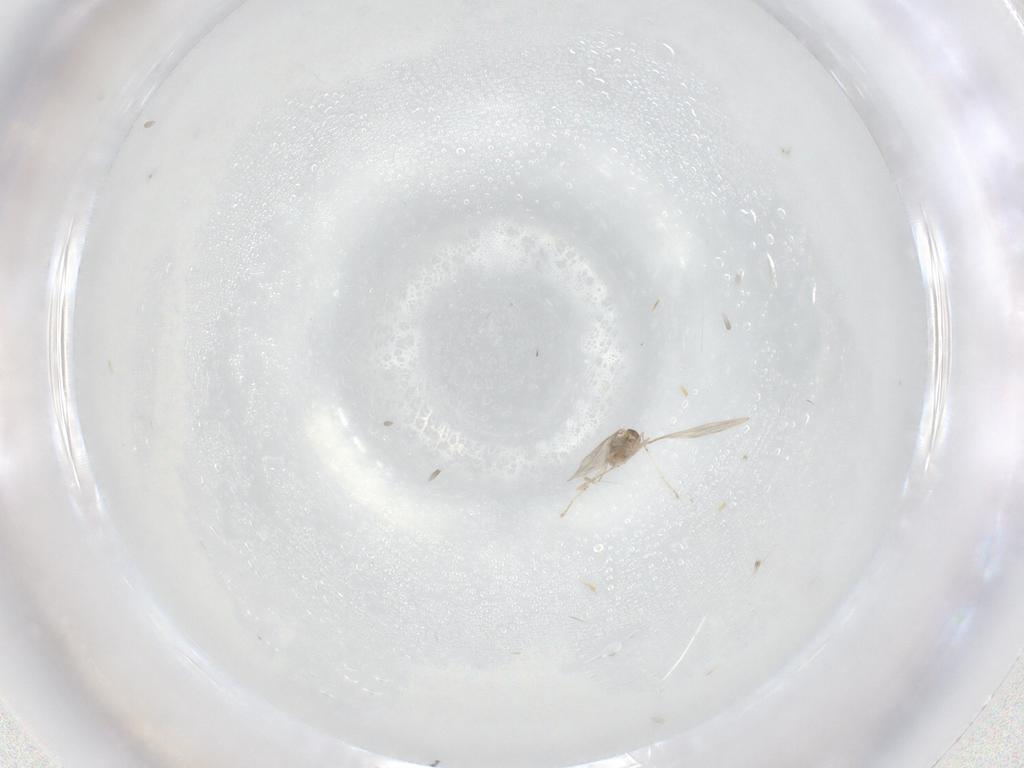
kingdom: Animalia
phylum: Arthropoda
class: Insecta
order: Diptera
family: Cecidomyiidae
